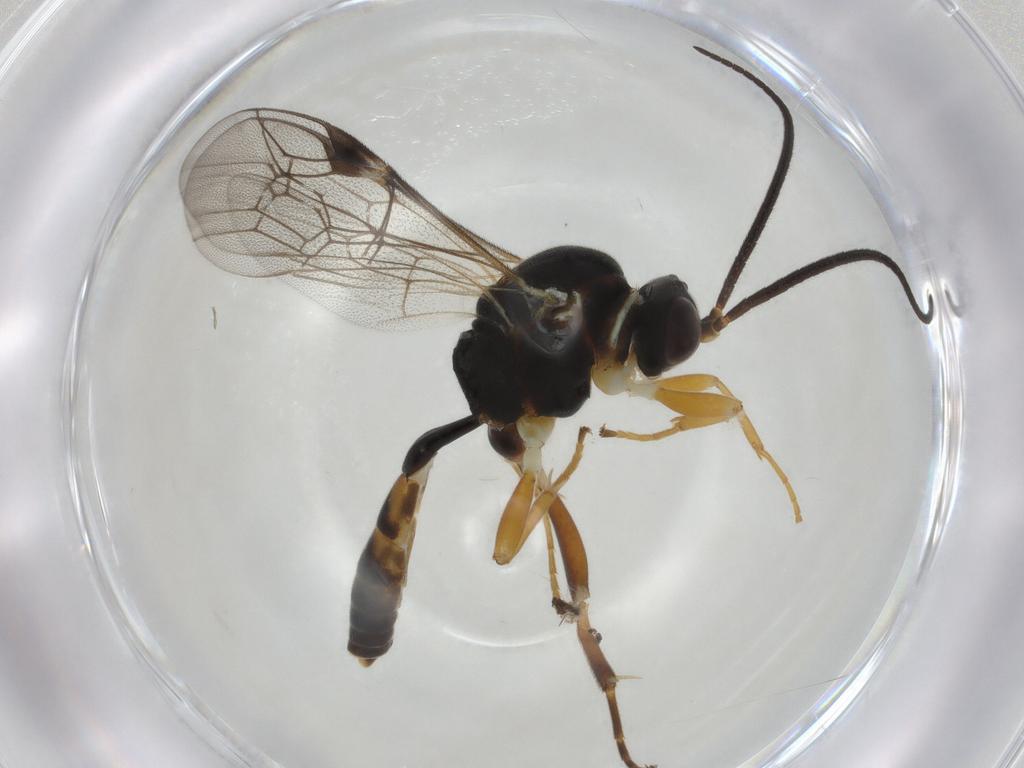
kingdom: Animalia
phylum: Arthropoda
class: Insecta
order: Hymenoptera
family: Ichneumonidae
